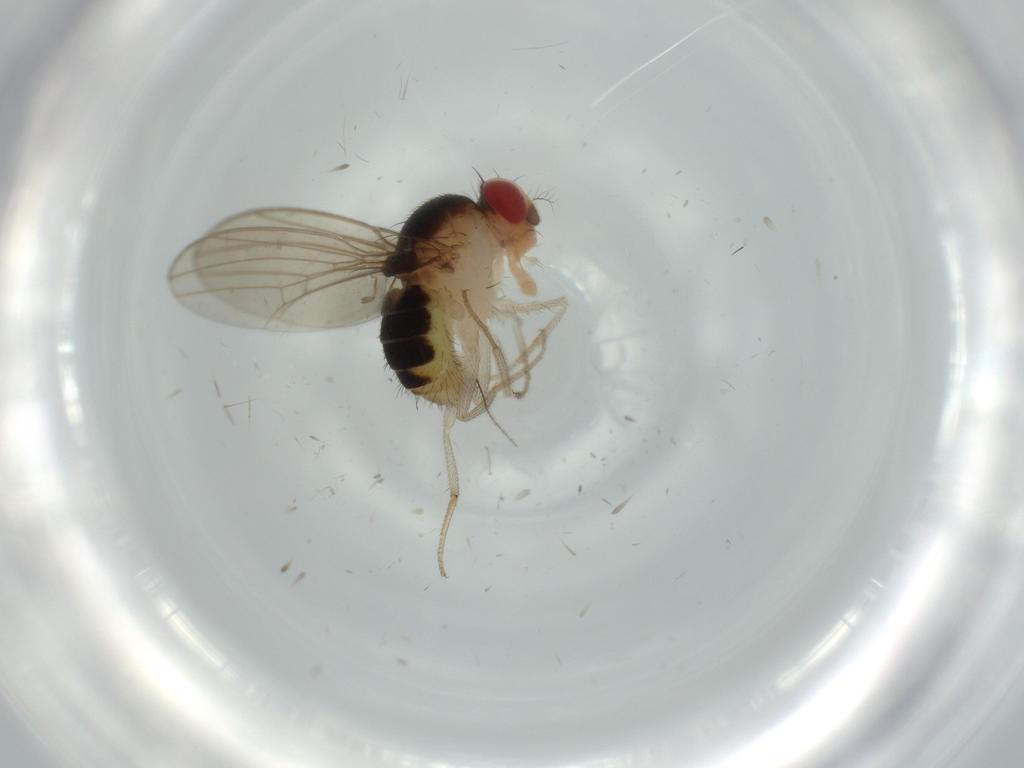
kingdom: Animalia
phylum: Arthropoda
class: Insecta
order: Diptera
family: Drosophilidae
